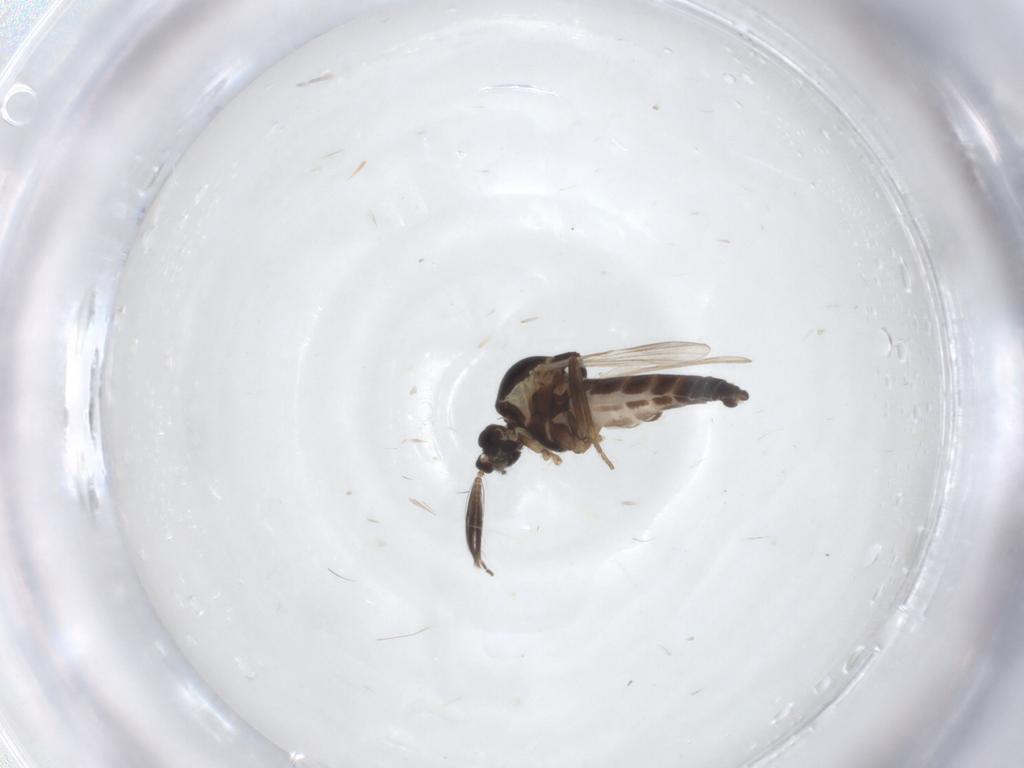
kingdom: Animalia
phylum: Arthropoda
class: Insecta
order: Diptera
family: Ceratopogonidae
